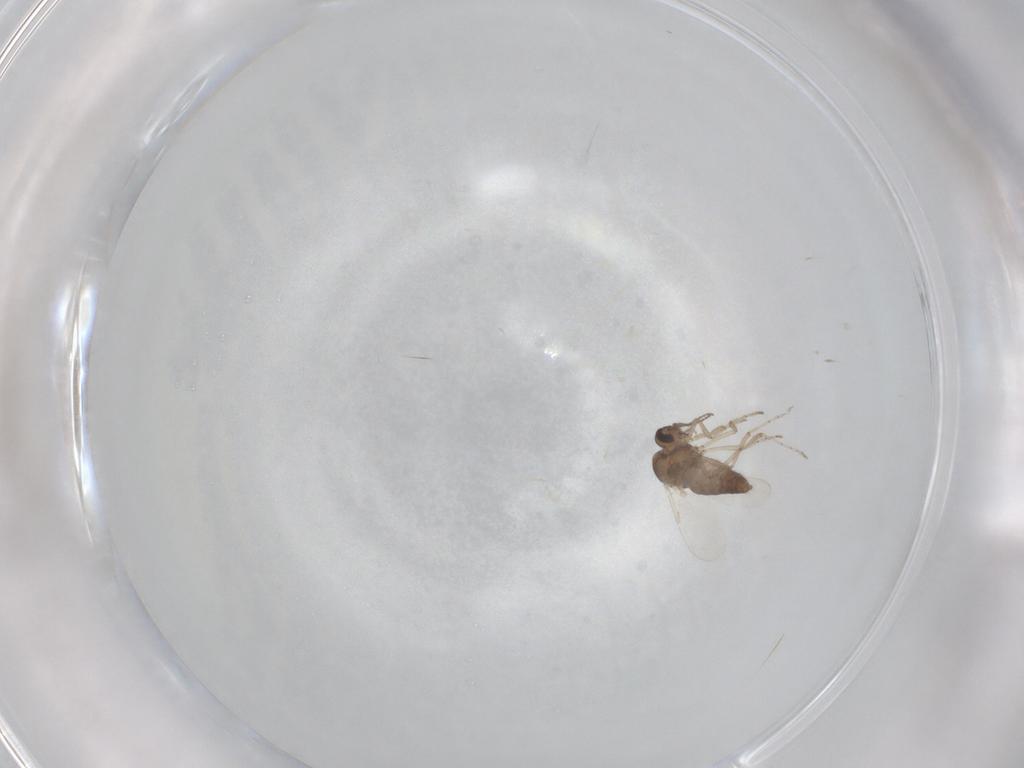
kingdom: Animalia
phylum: Arthropoda
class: Insecta
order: Diptera
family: Ceratopogonidae
